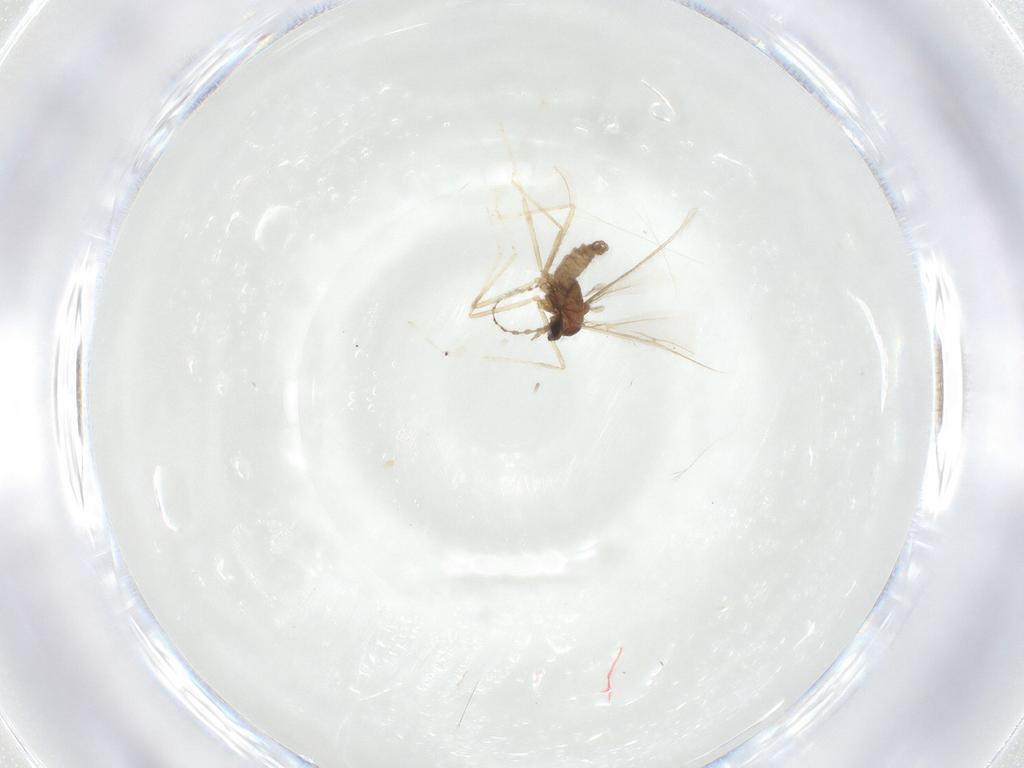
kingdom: Animalia
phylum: Arthropoda
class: Insecta
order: Diptera
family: Cecidomyiidae
